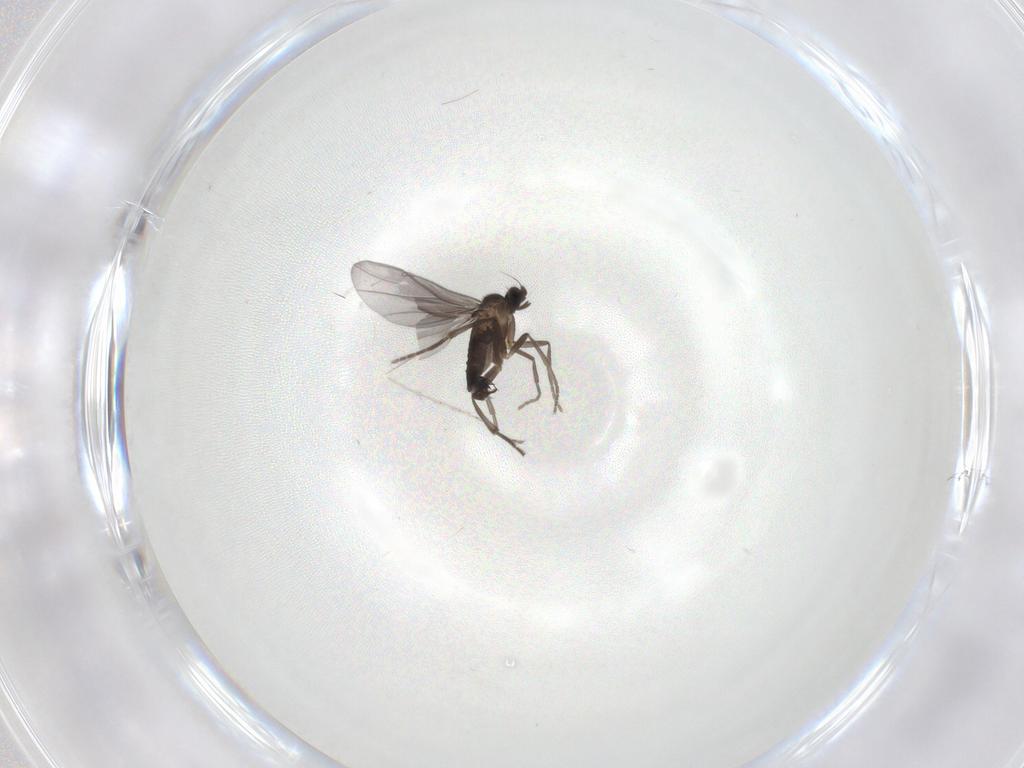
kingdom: Animalia
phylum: Arthropoda
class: Insecta
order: Diptera
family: Phoridae
